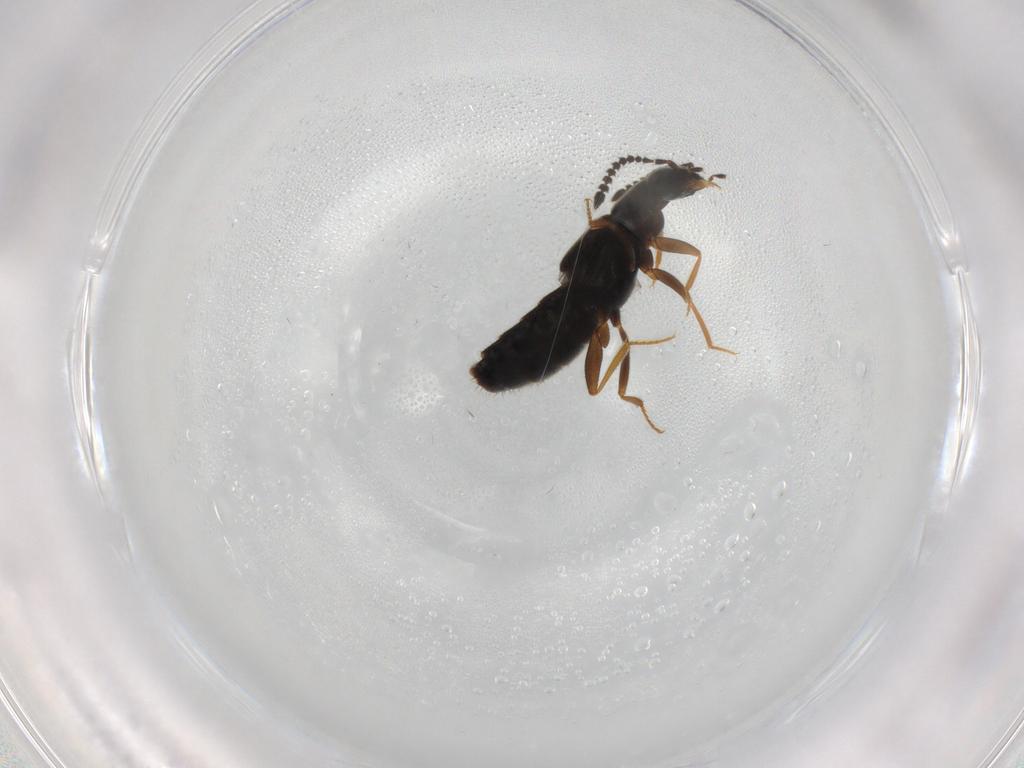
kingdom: Animalia
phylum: Arthropoda
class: Insecta
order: Coleoptera
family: Staphylinidae
